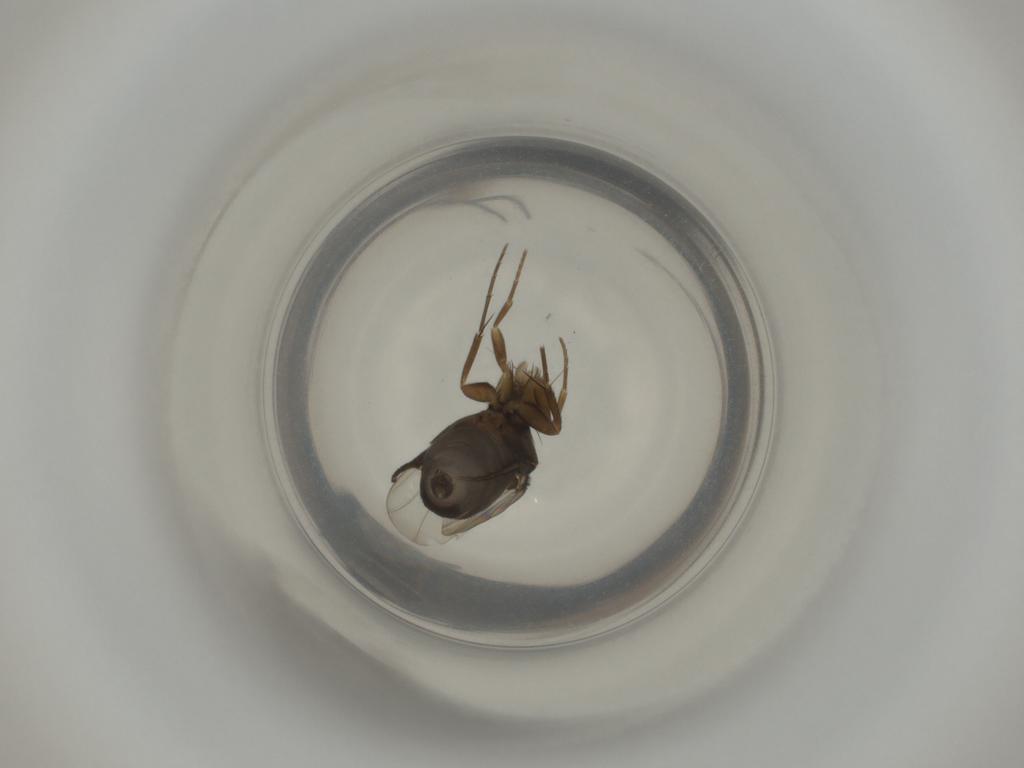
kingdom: Animalia
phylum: Arthropoda
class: Insecta
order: Diptera
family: Phoridae
